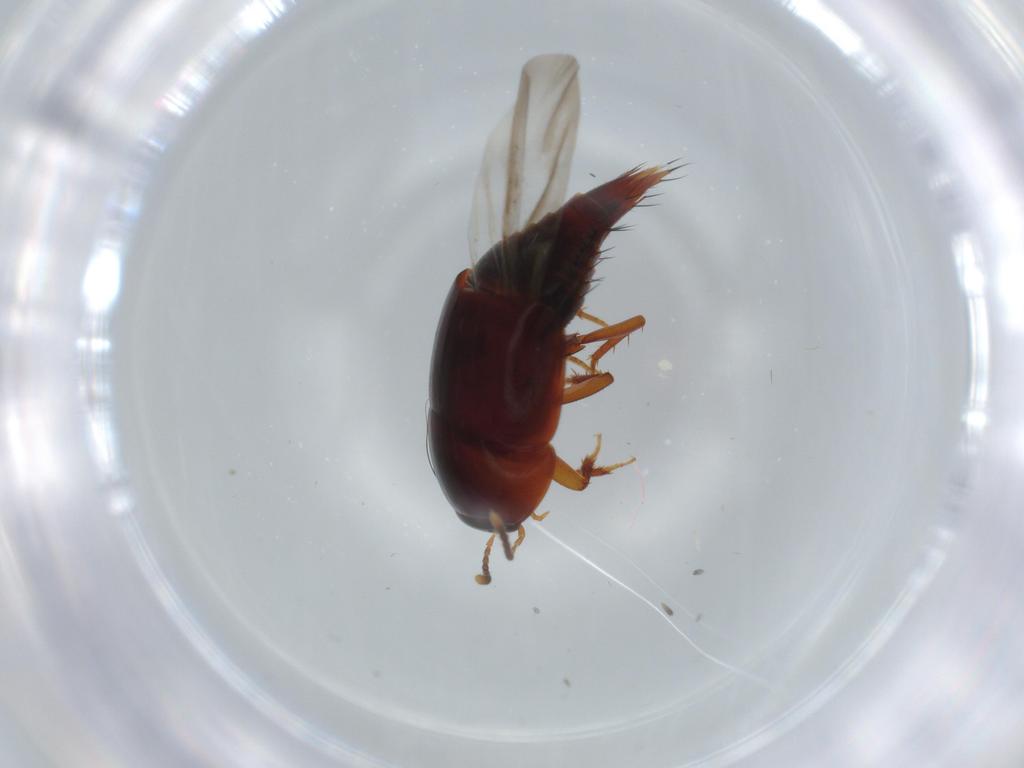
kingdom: Animalia
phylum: Arthropoda
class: Insecta
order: Coleoptera
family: Staphylinidae
